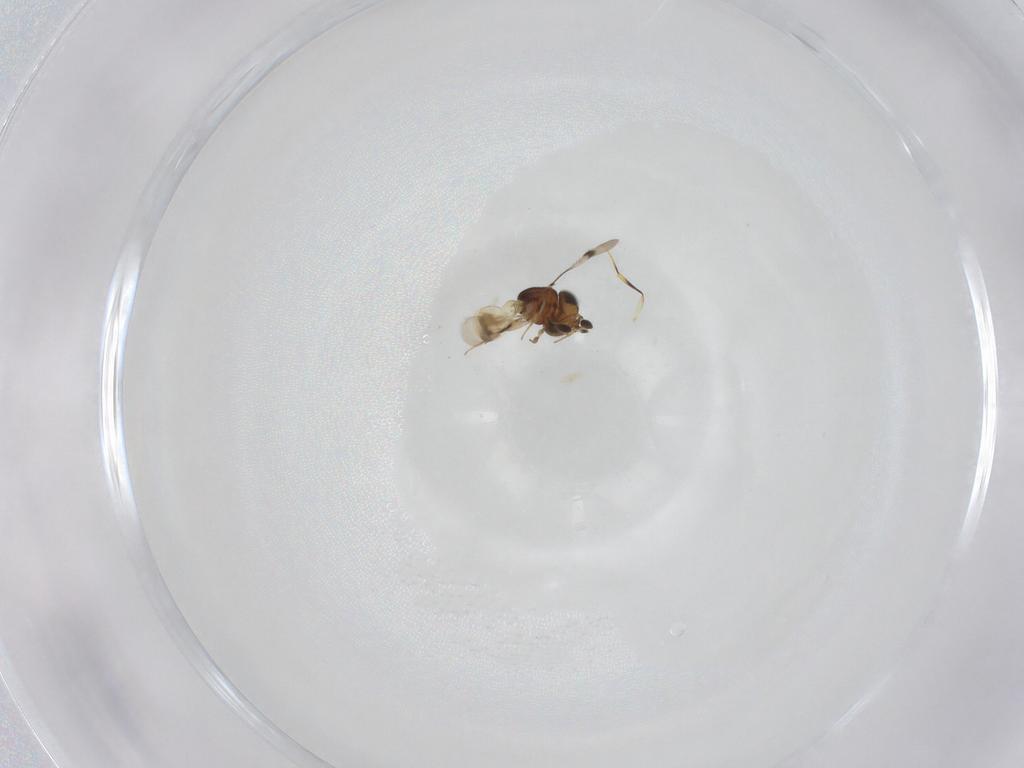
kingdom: Animalia
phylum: Arthropoda
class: Arachnida
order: Araneae
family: Pholcidae
